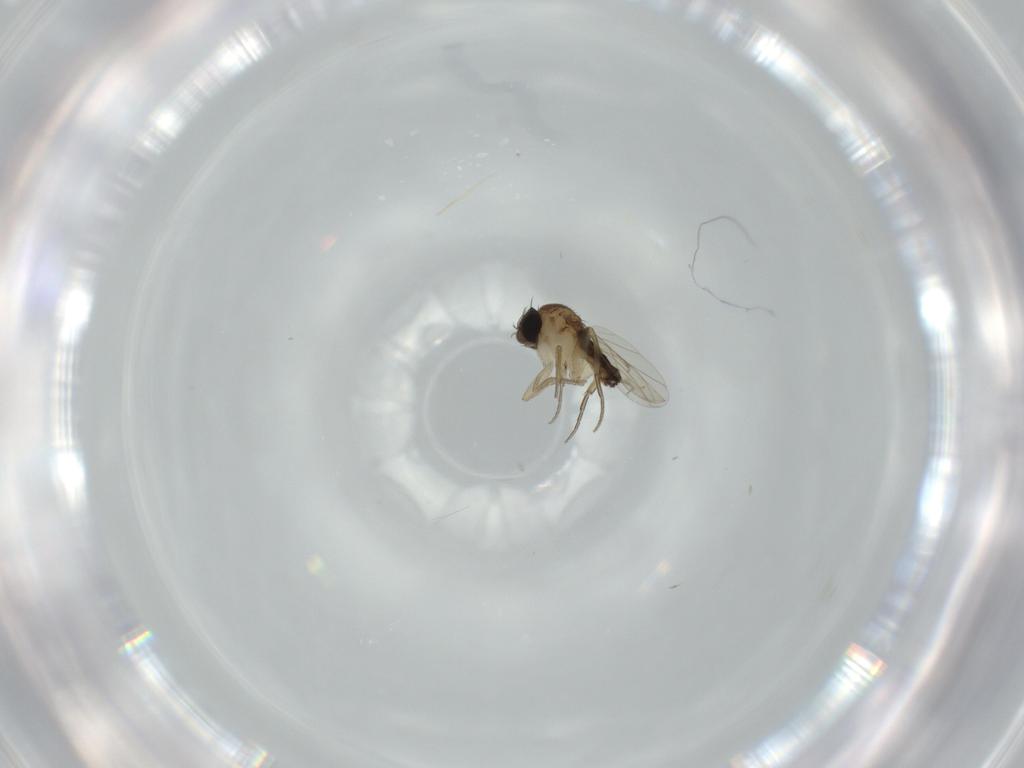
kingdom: Animalia
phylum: Arthropoda
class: Insecta
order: Diptera
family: Phoridae
